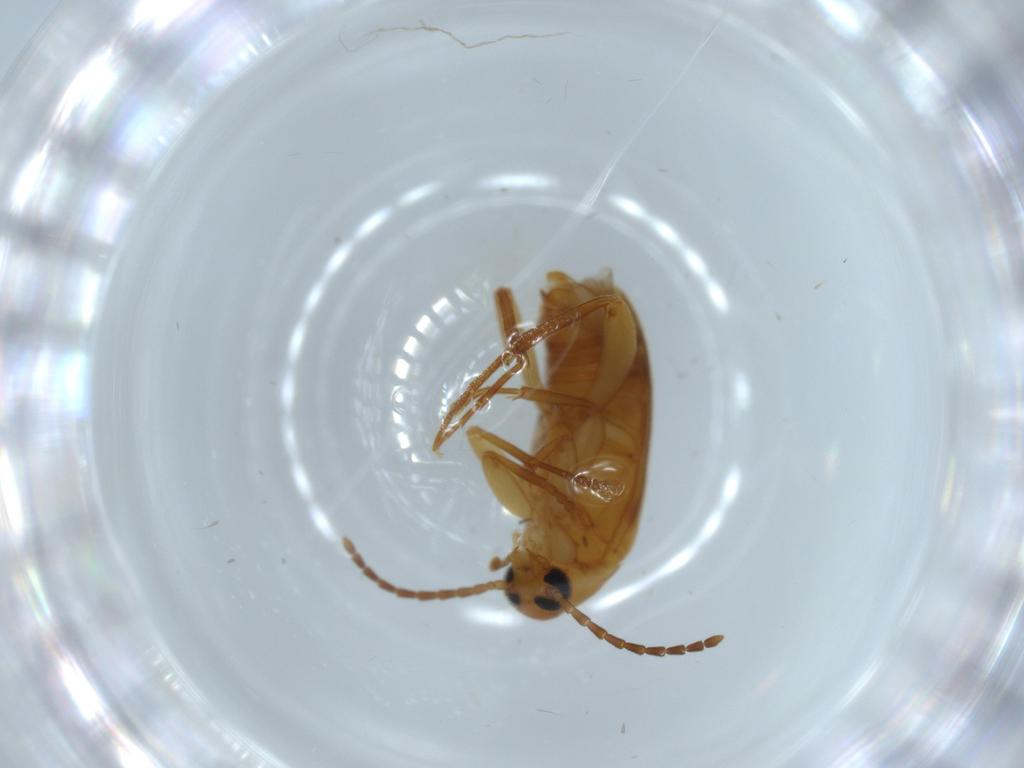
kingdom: Animalia
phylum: Arthropoda
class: Insecta
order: Coleoptera
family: Scraptiidae
